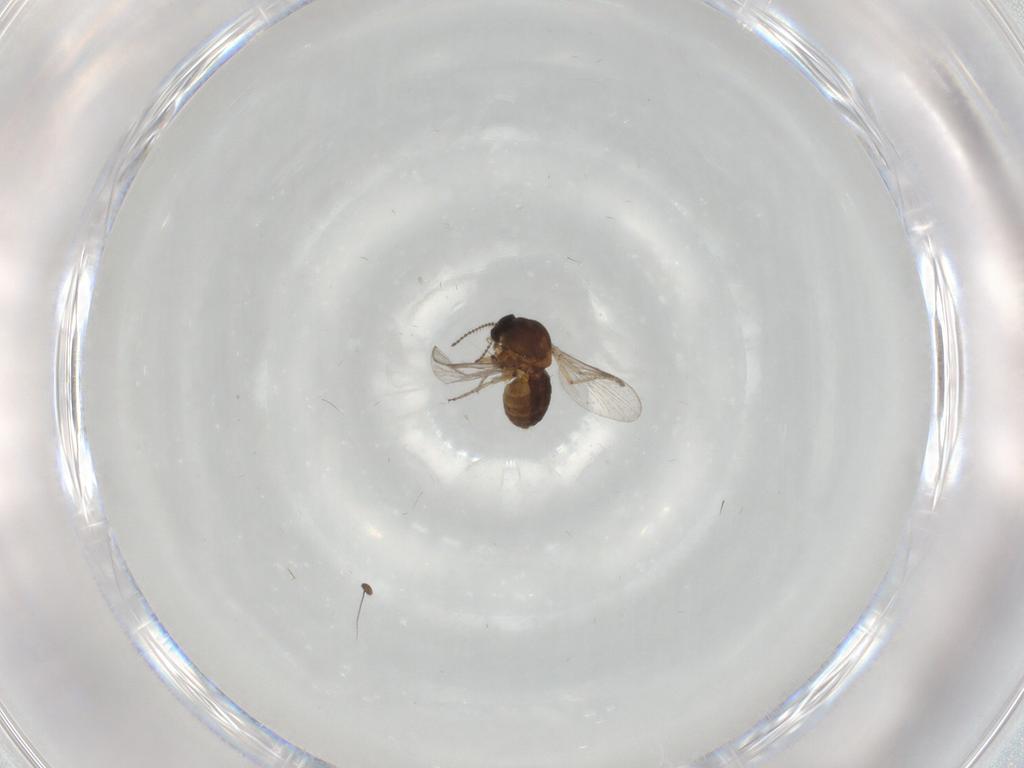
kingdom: Animalia
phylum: Arthropoda
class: Insecta
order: Diptera
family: Ceratopogonidae
